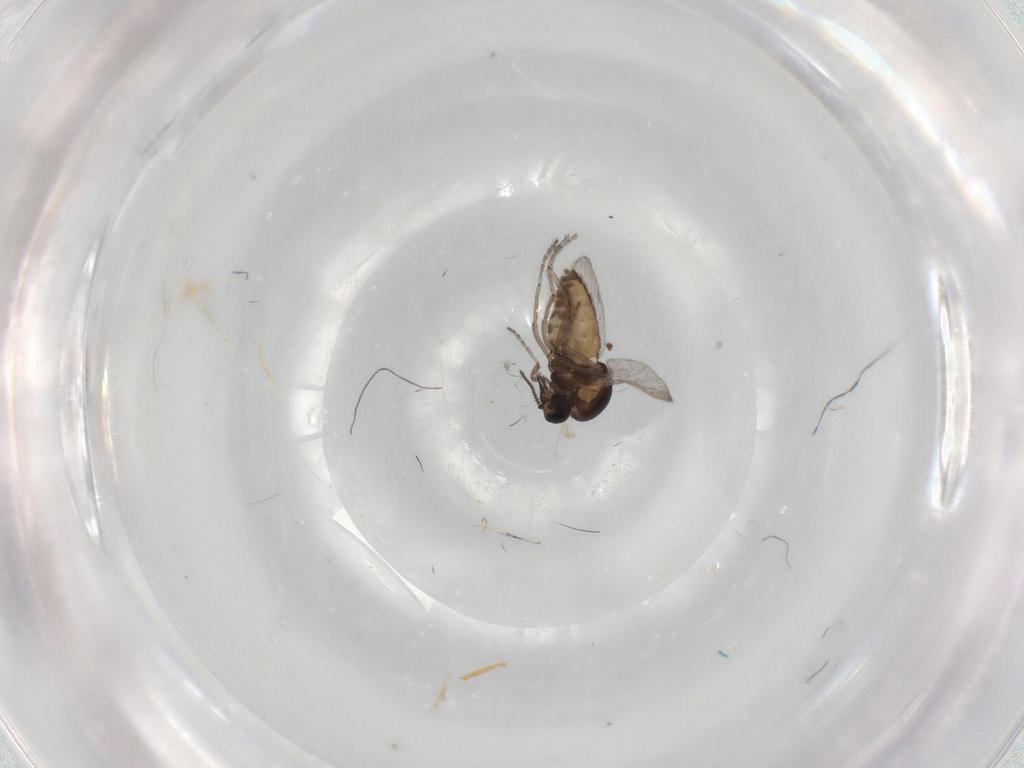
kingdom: Animalia
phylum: Arthropoda
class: Insecta
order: Diptera
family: Ceratopogonidae
